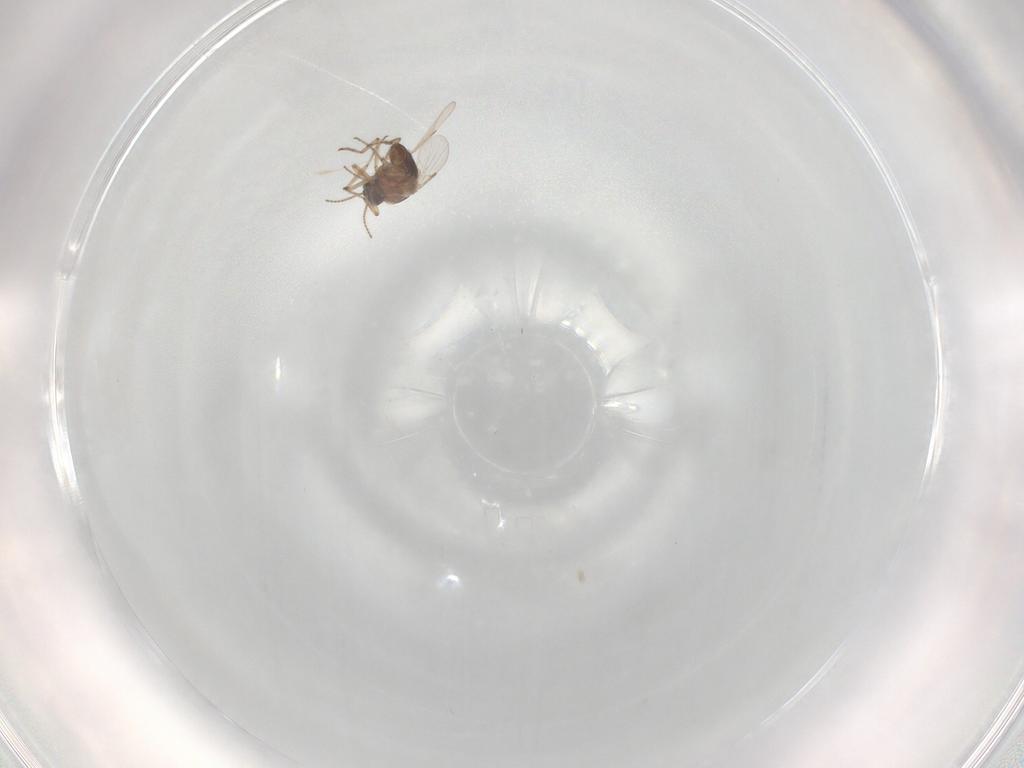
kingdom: Animalia
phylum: Arthropoda
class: Insecta
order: Diptera
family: Ceratopogonidae
